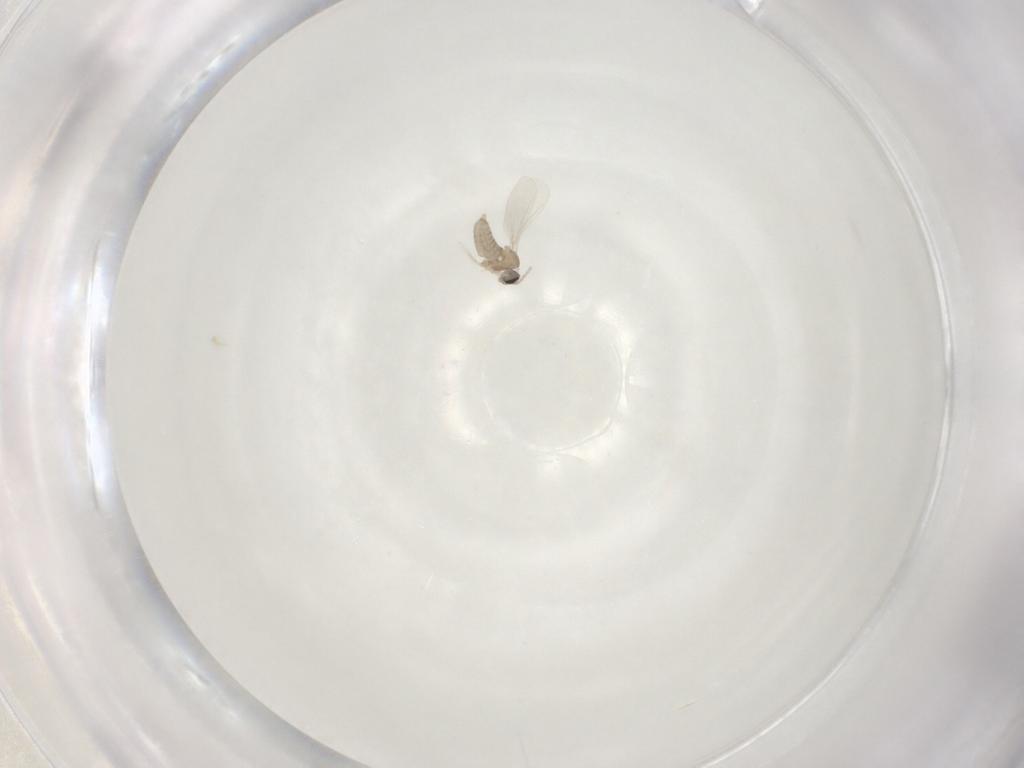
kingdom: Animalia
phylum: Arthropoda
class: Insecta
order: Diptera
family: Cecidomyiidae
